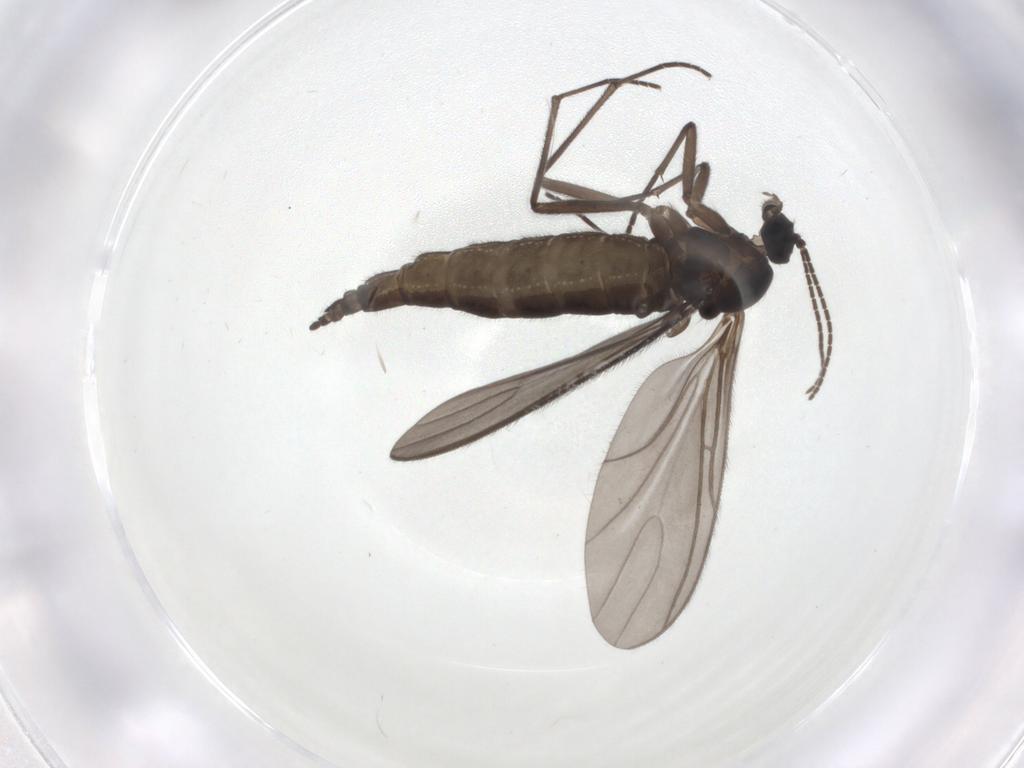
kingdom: Animalia
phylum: Arthropoda
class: Insecta
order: Diptera
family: Sciaridae
